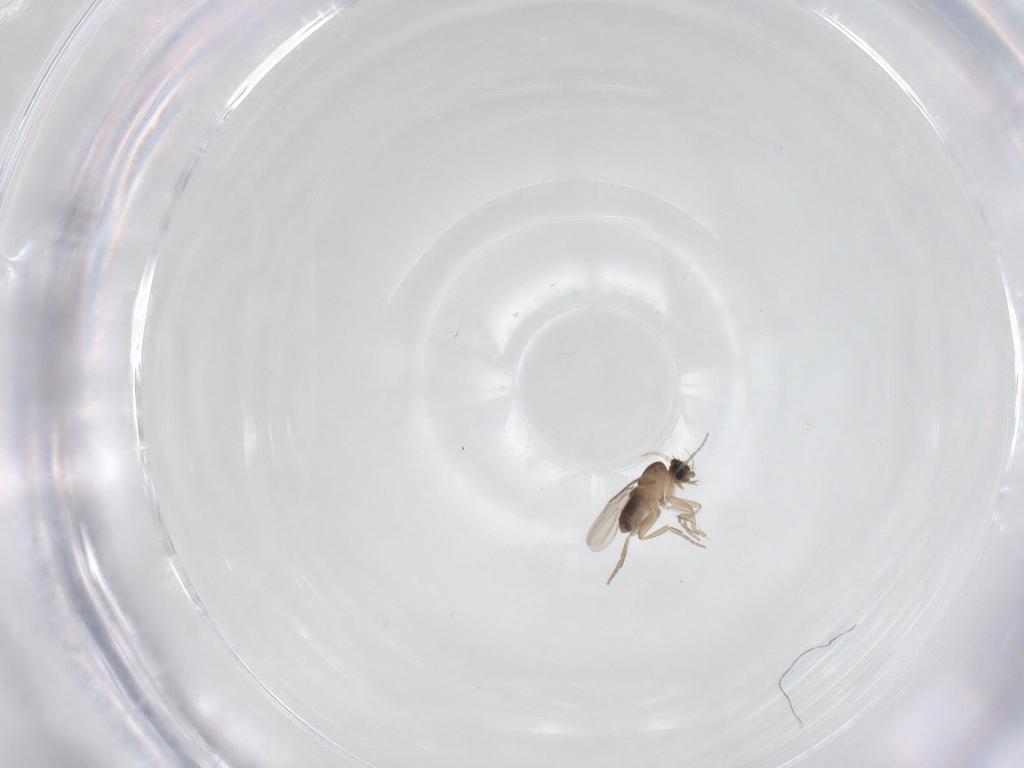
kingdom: Animalia
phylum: Arthropoda
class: Insecta
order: Diptera
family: Phoridae
